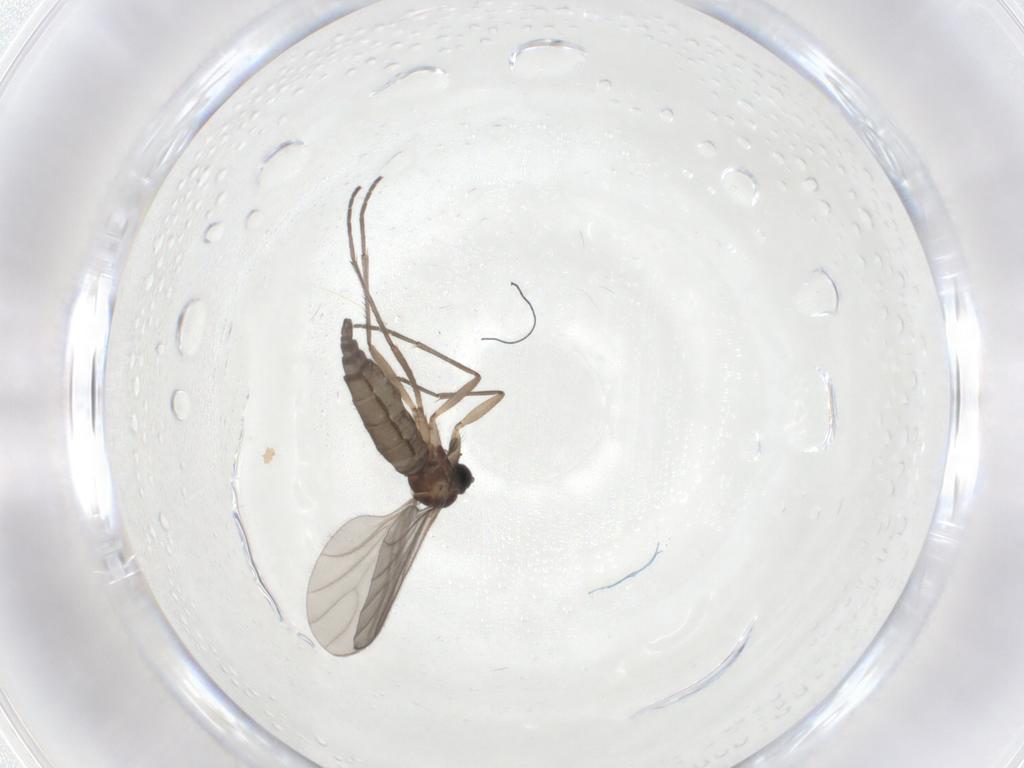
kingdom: Animalia
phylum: Arthropoda
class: Insecta
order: Diptera
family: Sciaridae
